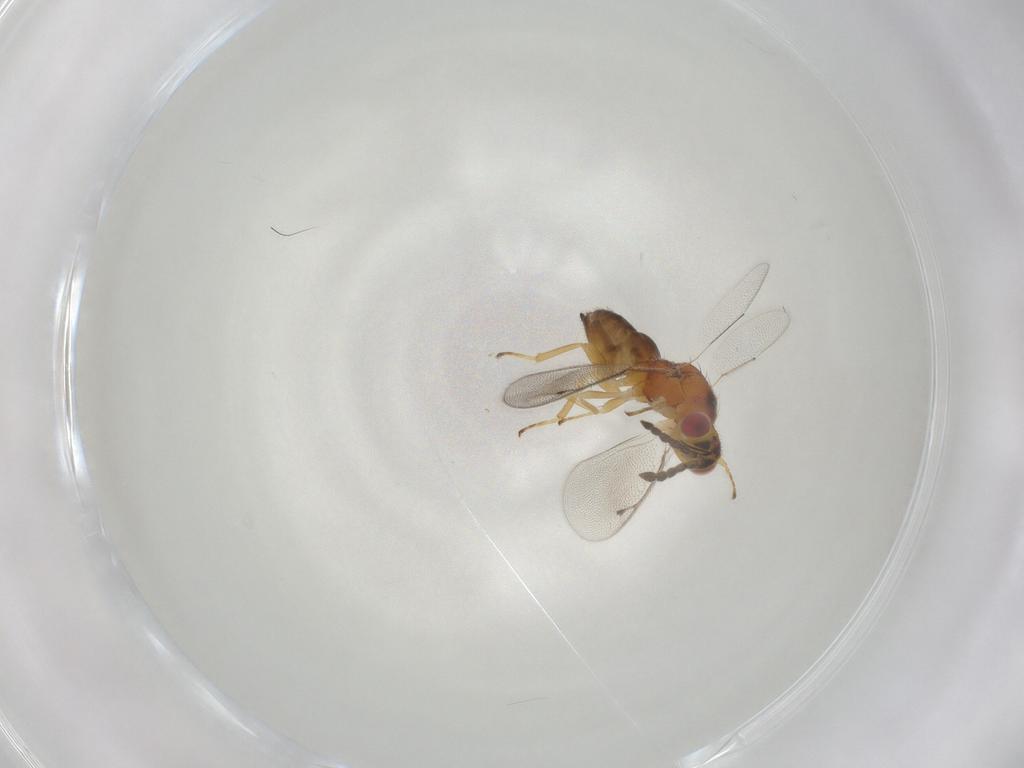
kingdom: Animalia
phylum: Arthropoda
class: Insecta
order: Hymenoptera
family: Eulophidae
